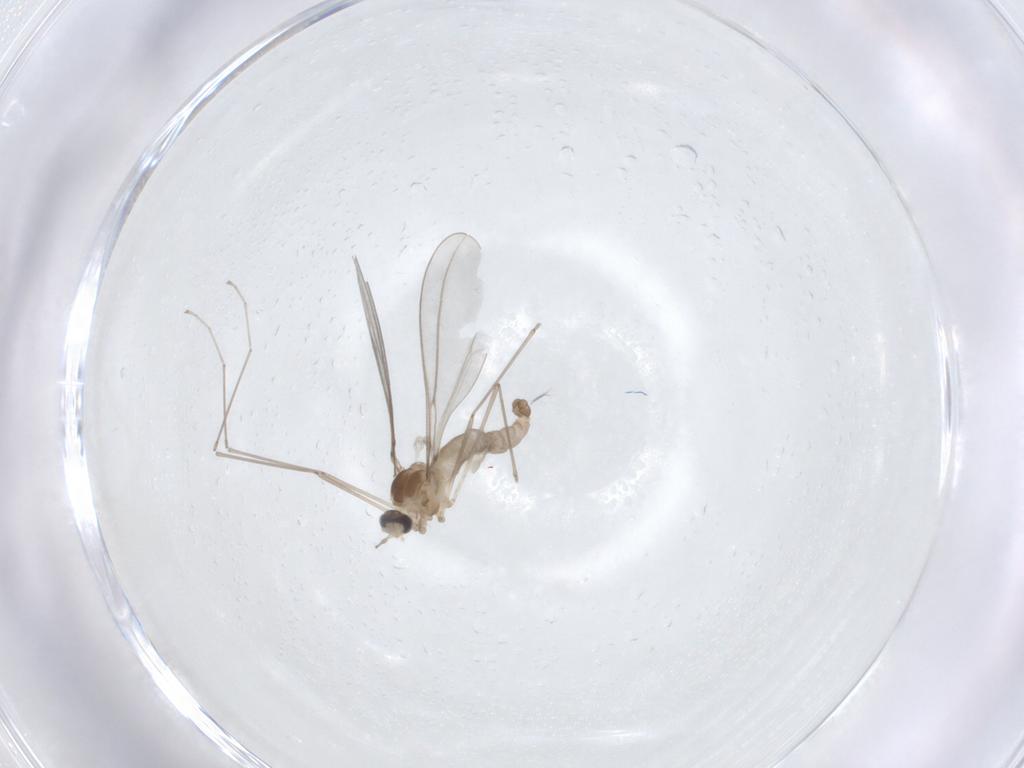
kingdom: Animalia
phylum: Arthropoda
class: Insecta
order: Diptera
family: Cecidomyiidae
